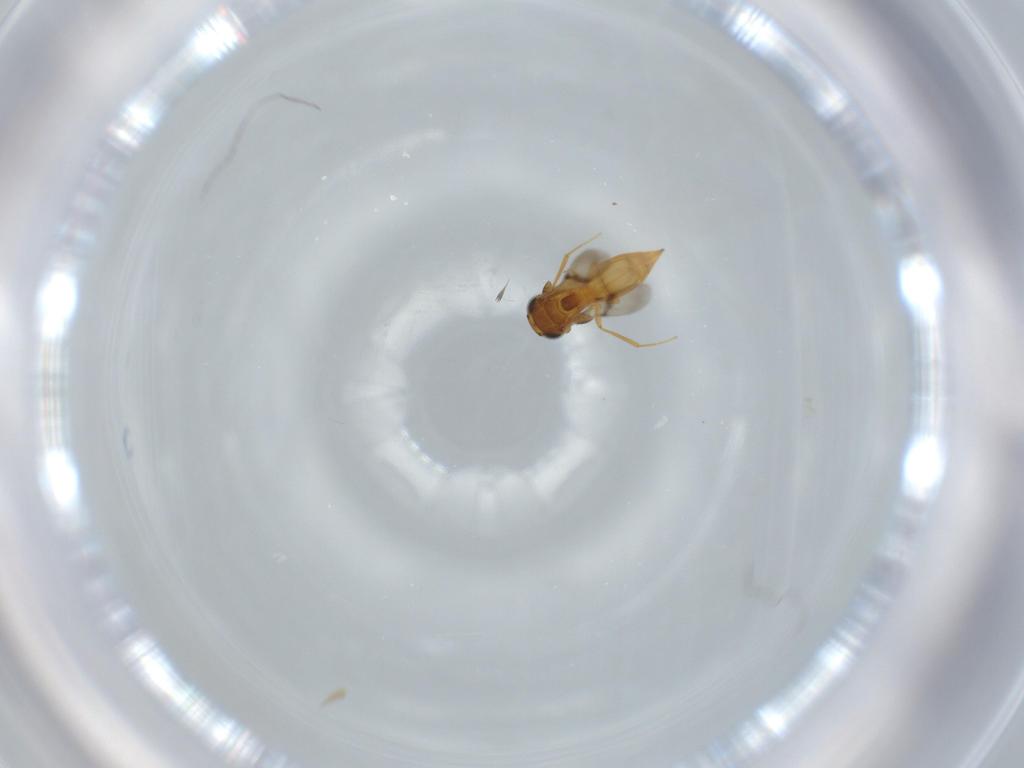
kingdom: Animalia
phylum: Arthropoda
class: Insecta
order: Hymenoptera
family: Scelionidae
